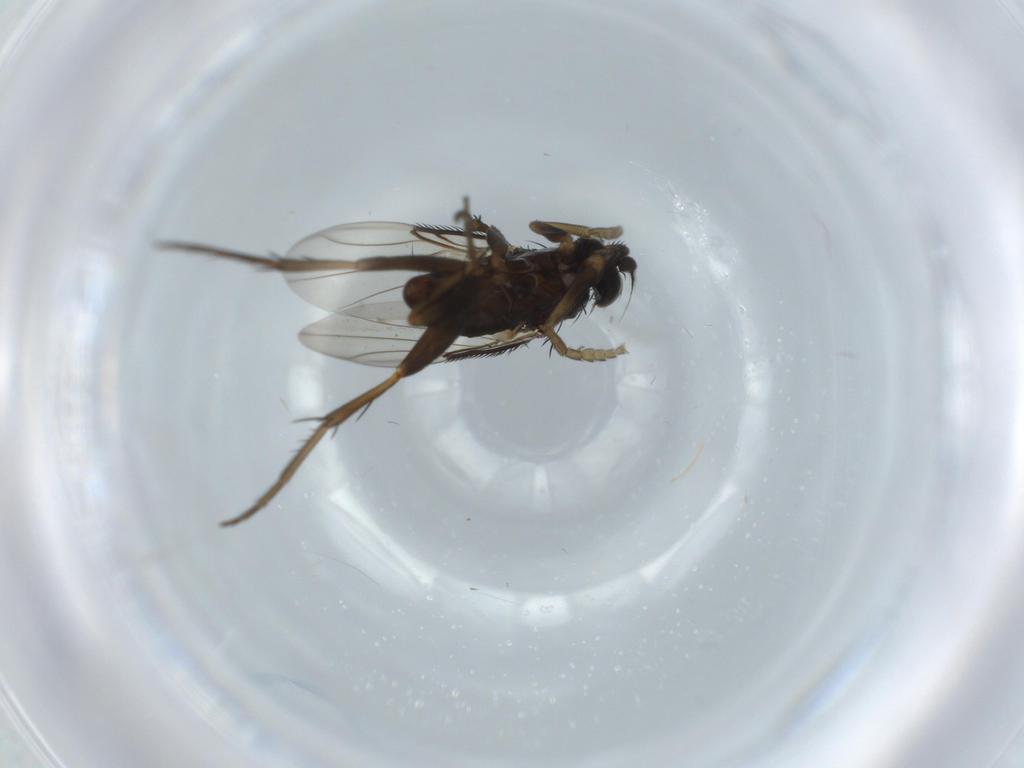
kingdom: Animalia
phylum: Arthropoda
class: Insecta
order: Diptera
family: Phoridae
